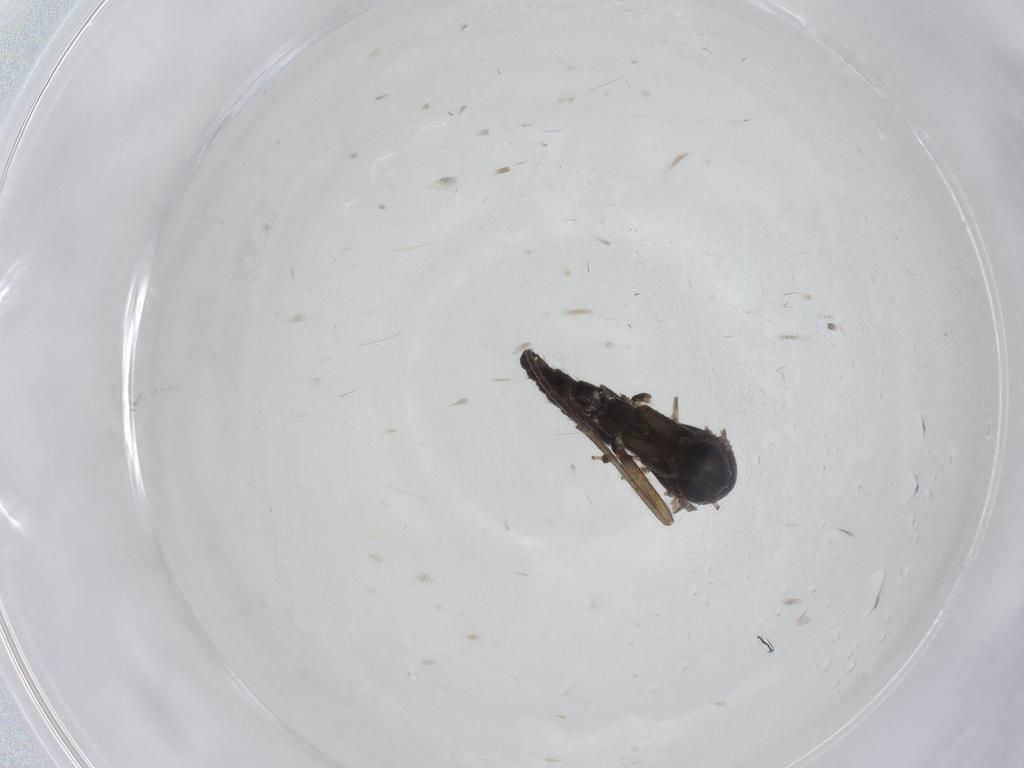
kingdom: Animalia
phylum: Arthropoda
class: Insecta
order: Diptera
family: Sciaridae
